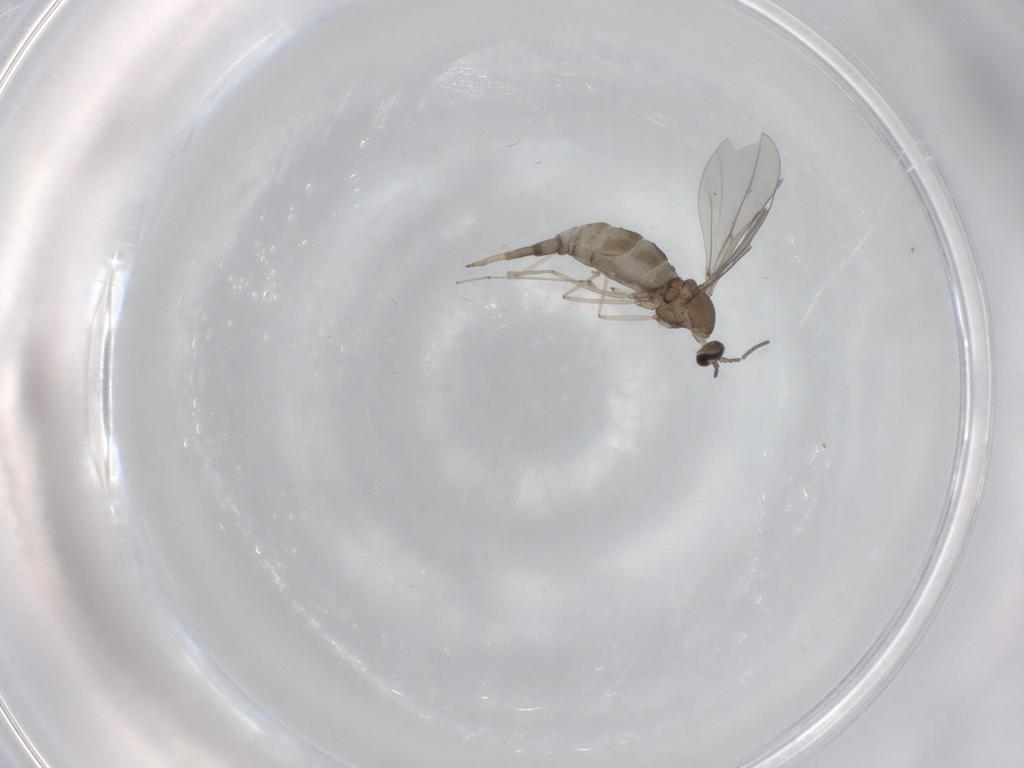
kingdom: Animalia
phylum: Arthropoda
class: Insecta
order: Diptera
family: Cecidomyiidae
